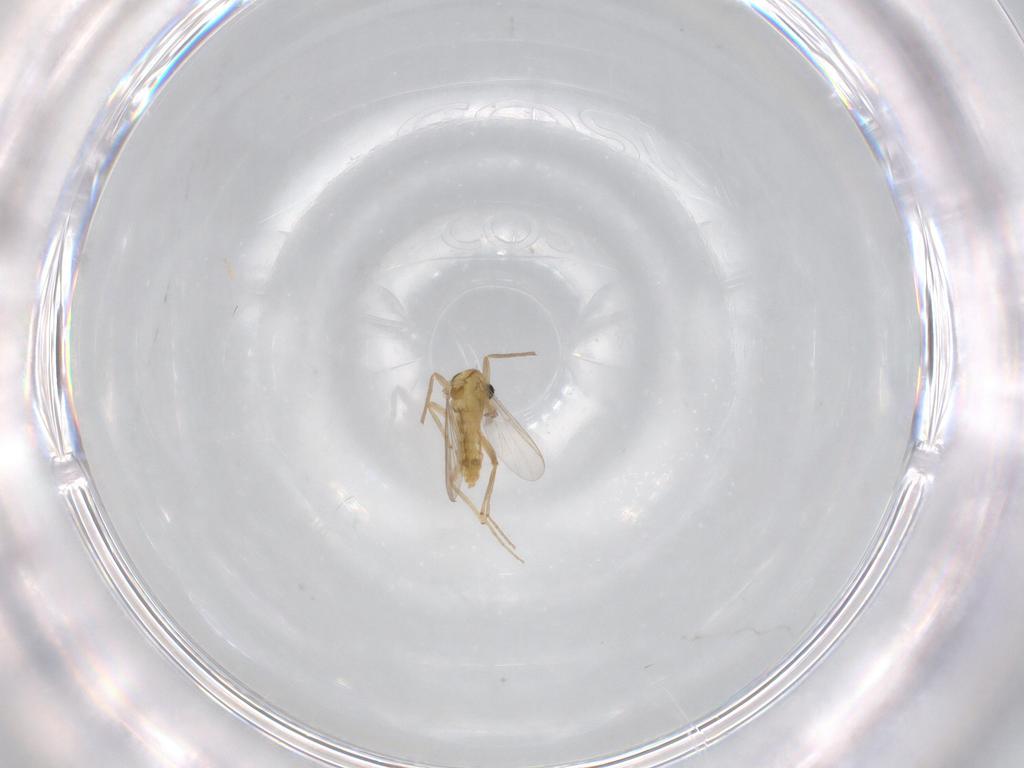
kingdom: Animalia
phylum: Arthropoda
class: Insecta
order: Diptera
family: Chironomidae
